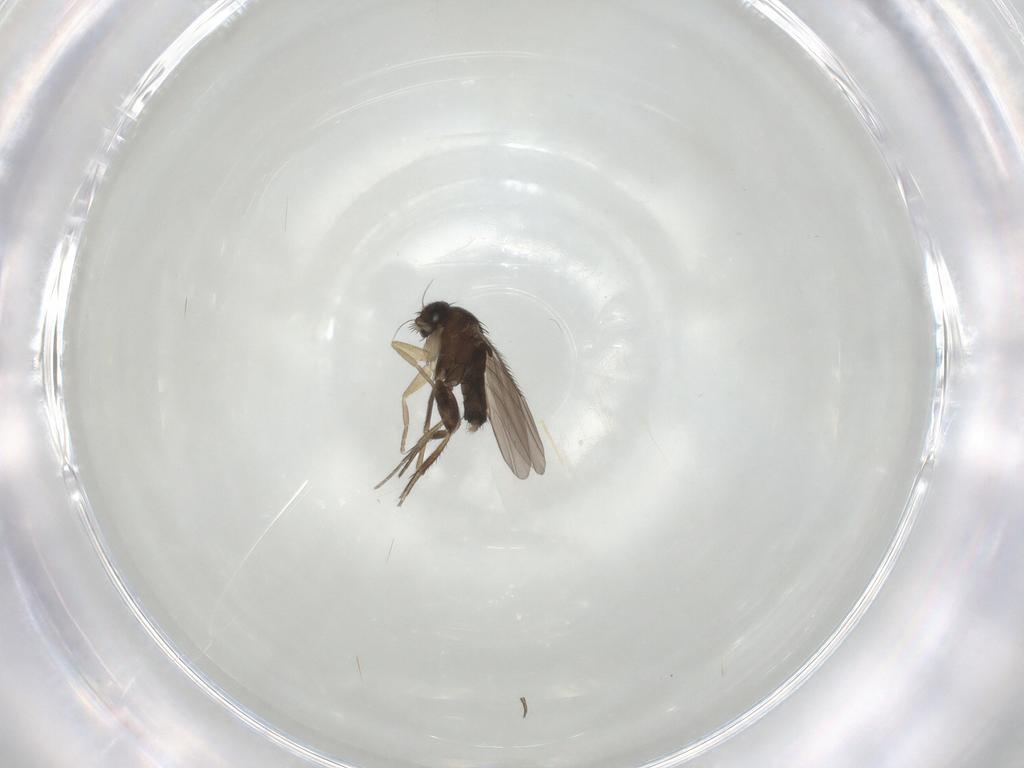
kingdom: Animalia
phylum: Arthropoda
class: Insecta
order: Diptera
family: Phoridae
